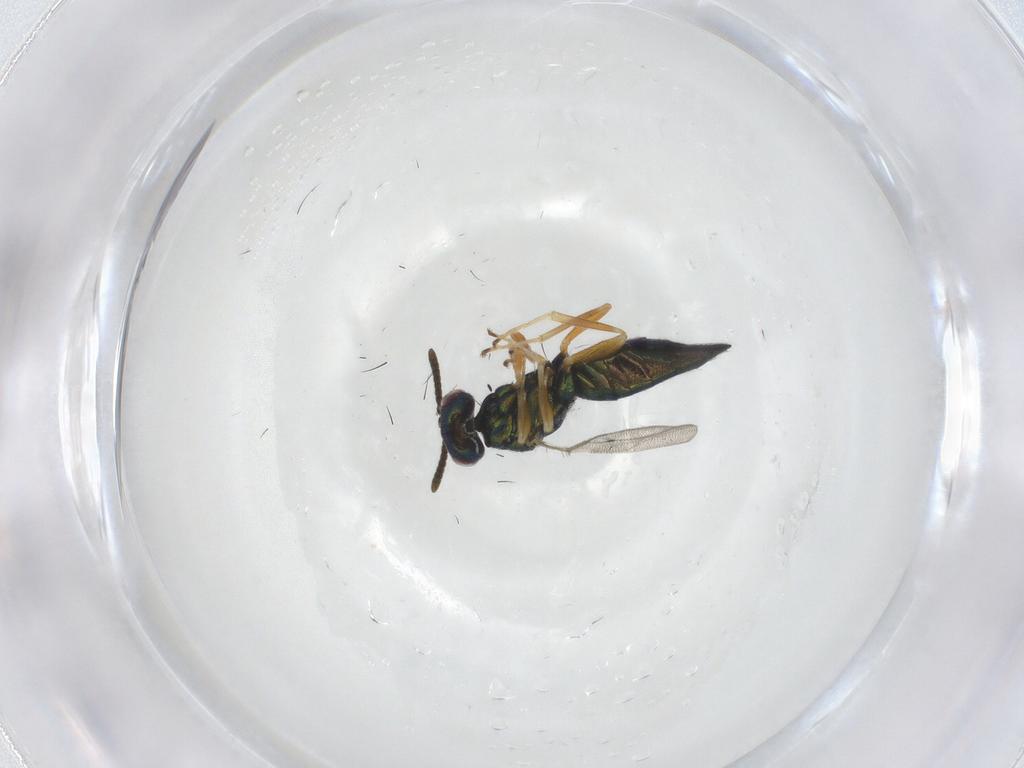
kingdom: Animalia
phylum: Arthropoda
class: Insecta
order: Hymenoptera
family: Pteromalidae
